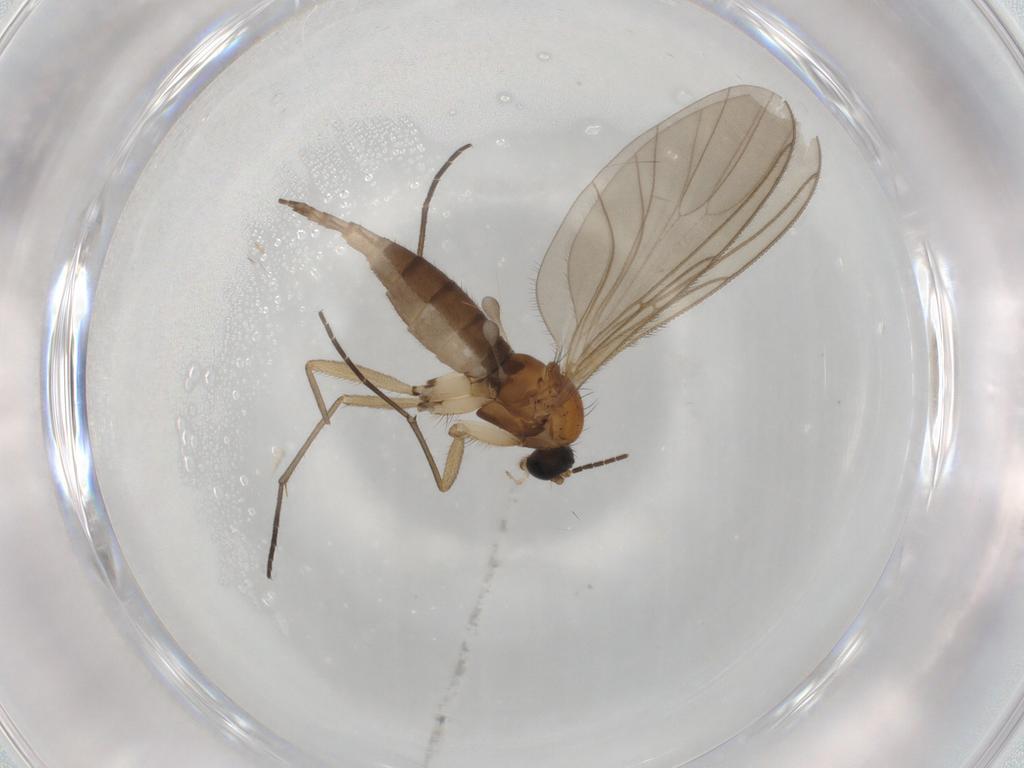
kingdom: Animalia
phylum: Arthropoda
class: Insecta
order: Diptera
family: Sciaridae
